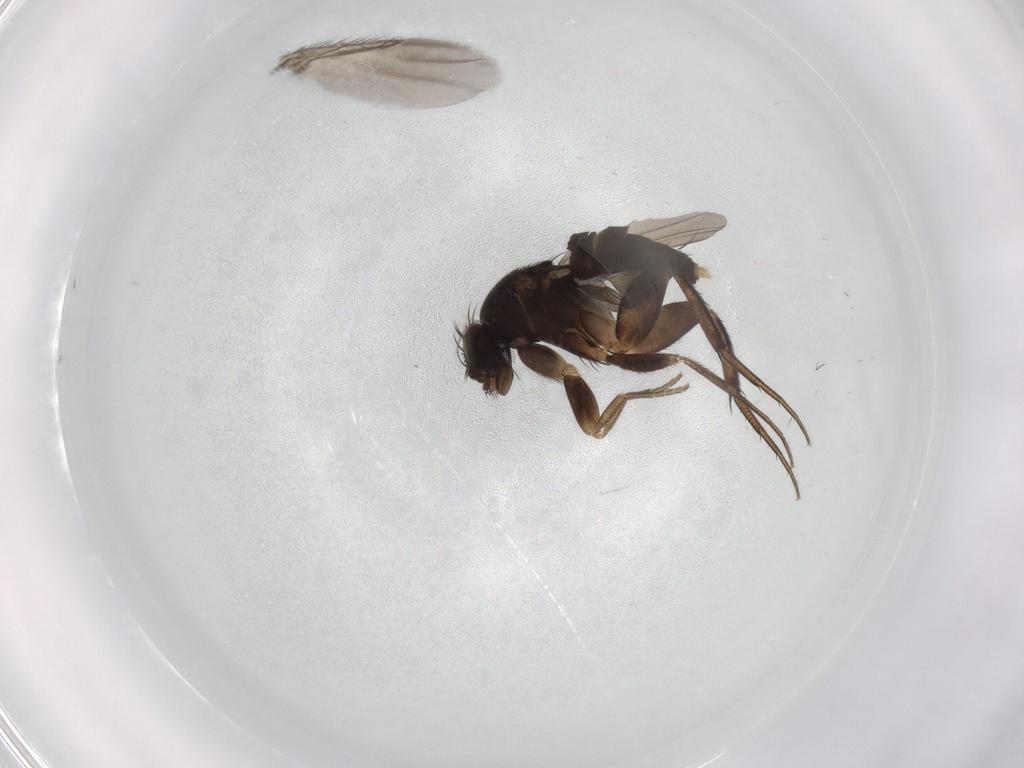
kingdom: Animalia
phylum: Arthropoda
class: Insecta
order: Diptera
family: Phoridae
